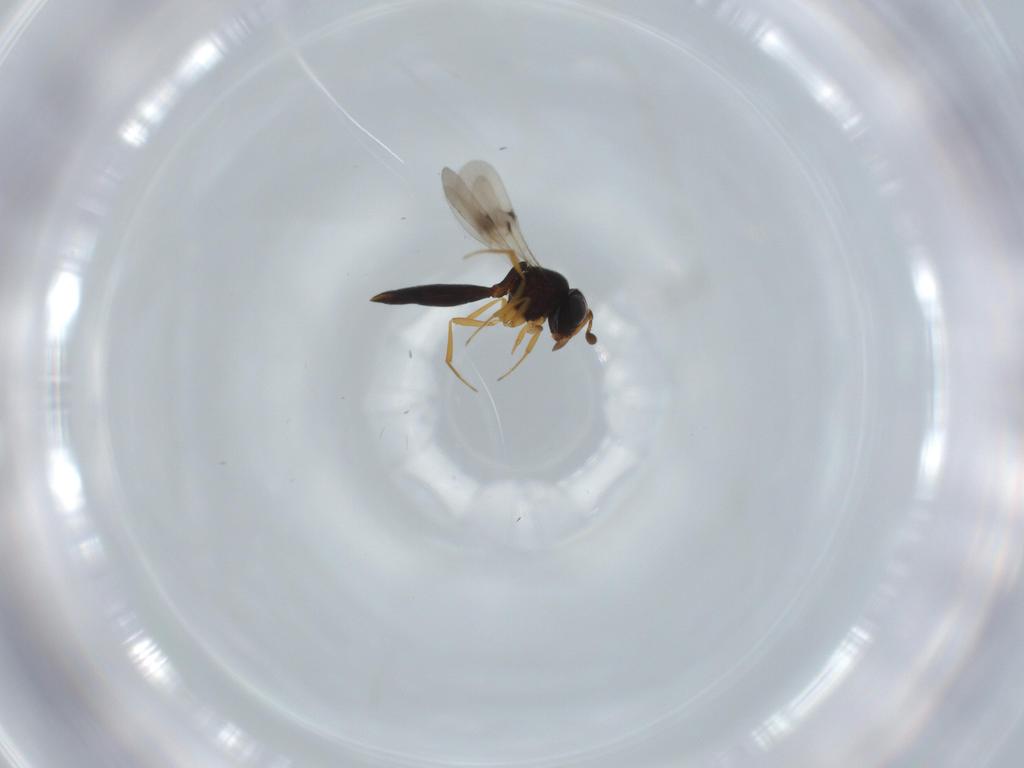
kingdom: Animalia
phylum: Arthropoda
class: Insecta
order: Hymenoptera
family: Scelionidae
